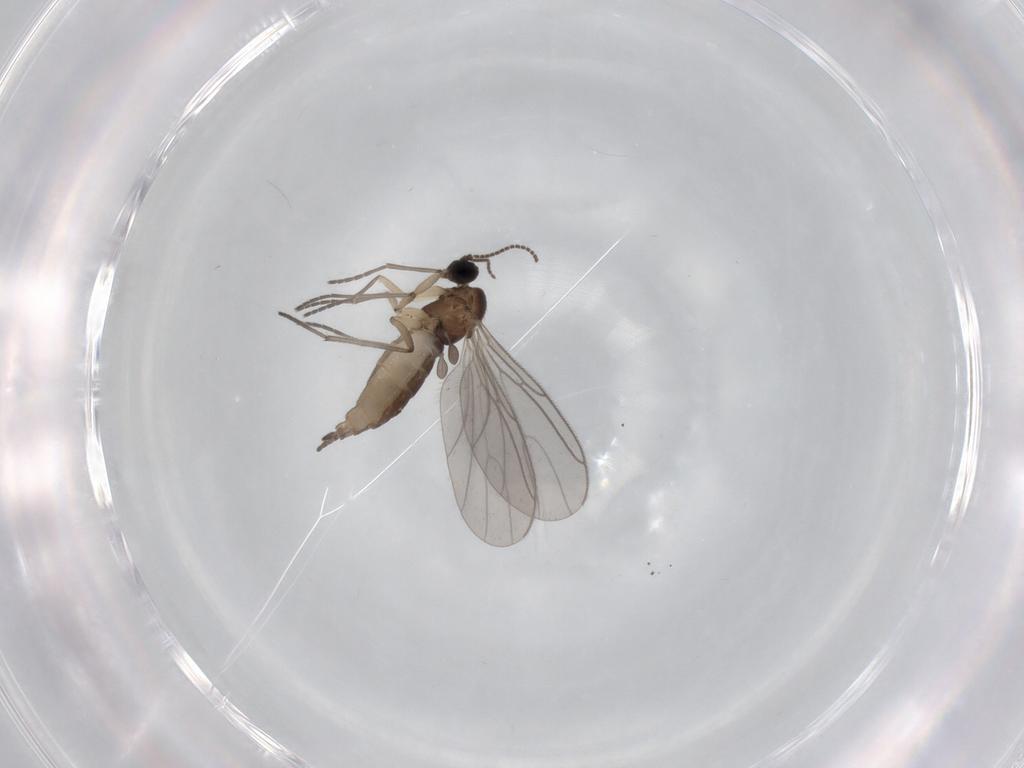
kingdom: Animalia
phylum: Arthropoda
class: Insecta
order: Diptera
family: Sciaridae
